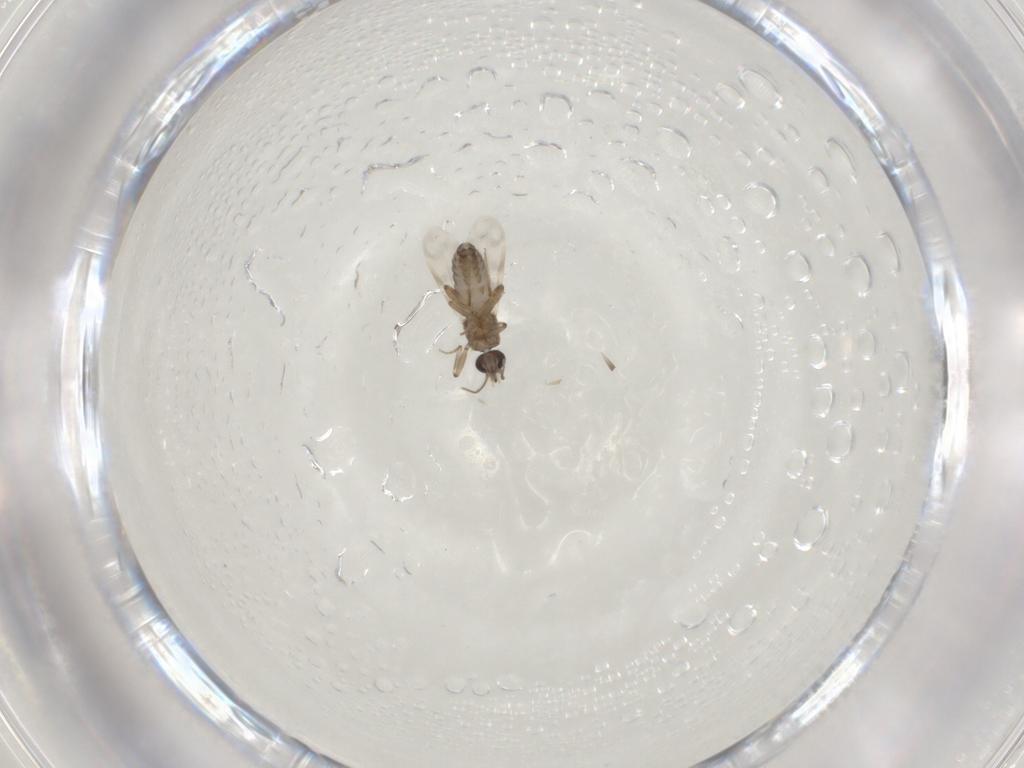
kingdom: Animalia
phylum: Arthropoda
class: Insecta
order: Diptera
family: Ceratopogonidae
